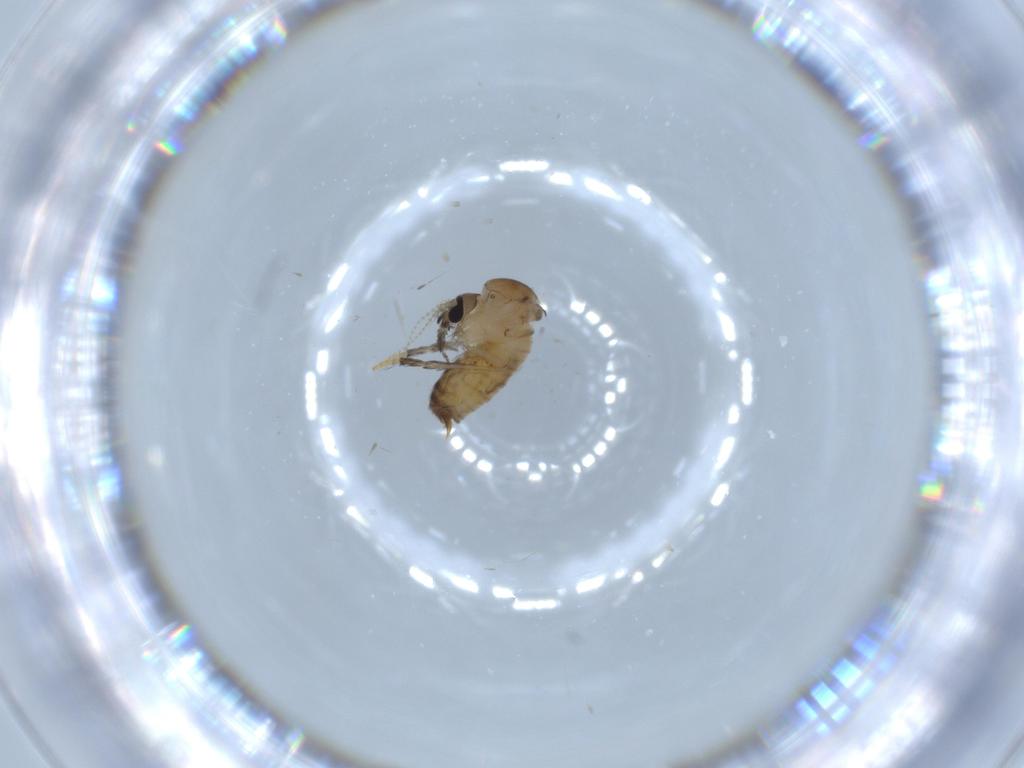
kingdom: Animalia
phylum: Arthropoda
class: Insecta
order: Diptera
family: Psychodidae
